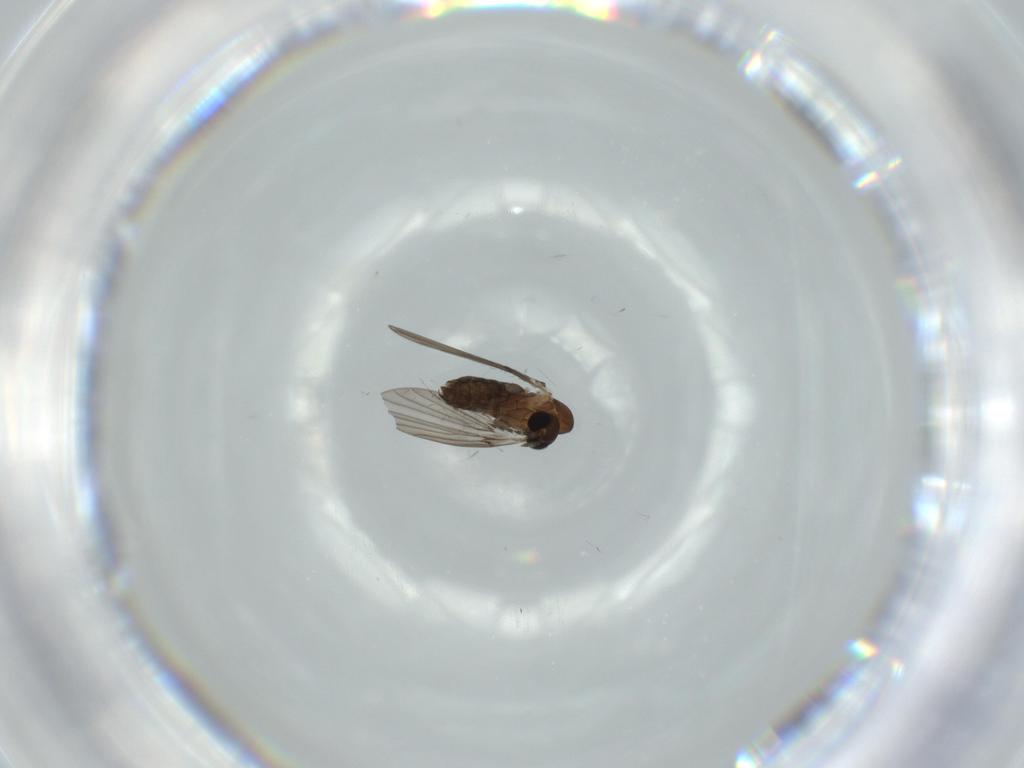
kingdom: Animalia
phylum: Arthropoda
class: Insecta
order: Diptera
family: Psychodidae
